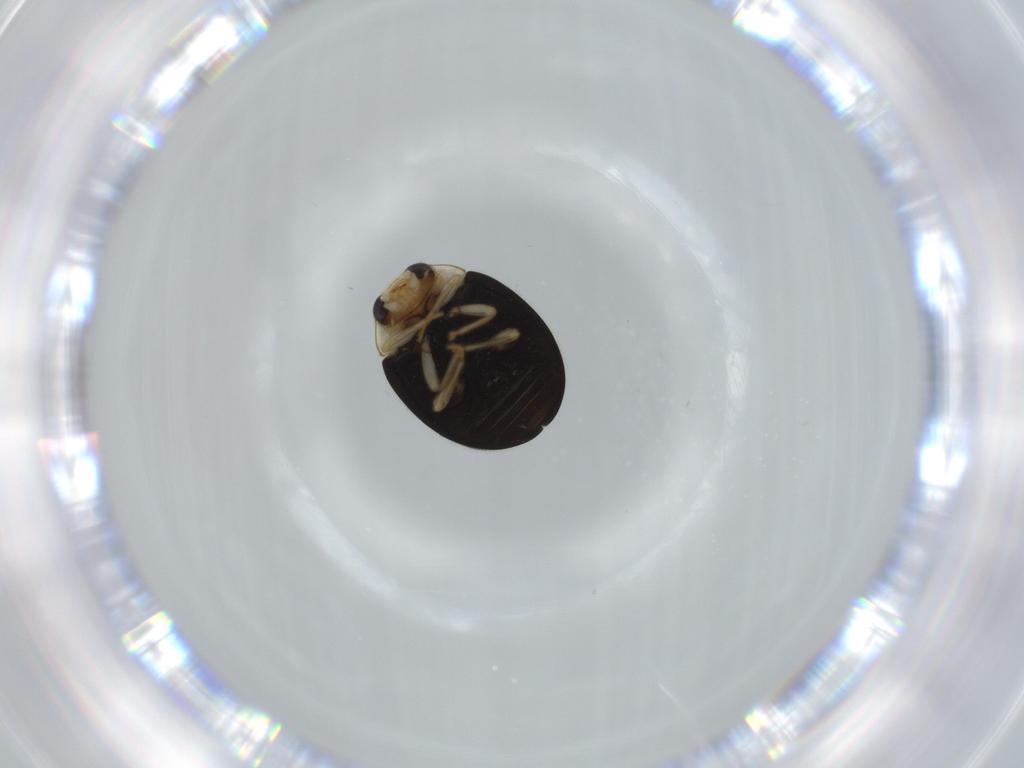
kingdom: Animalia
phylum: Arthropoda
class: Insecta
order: Coleoptera
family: Coccinellidae
